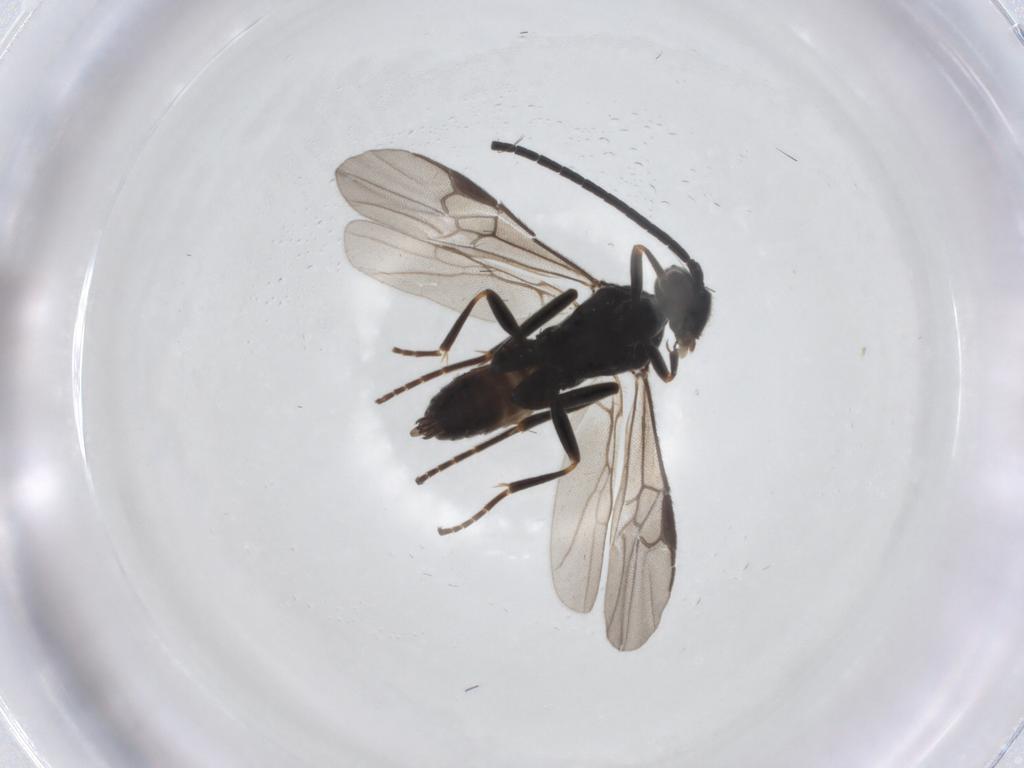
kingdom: Animalia
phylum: Arthropoda
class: Insecta
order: Hymenoptera
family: Braconidae
